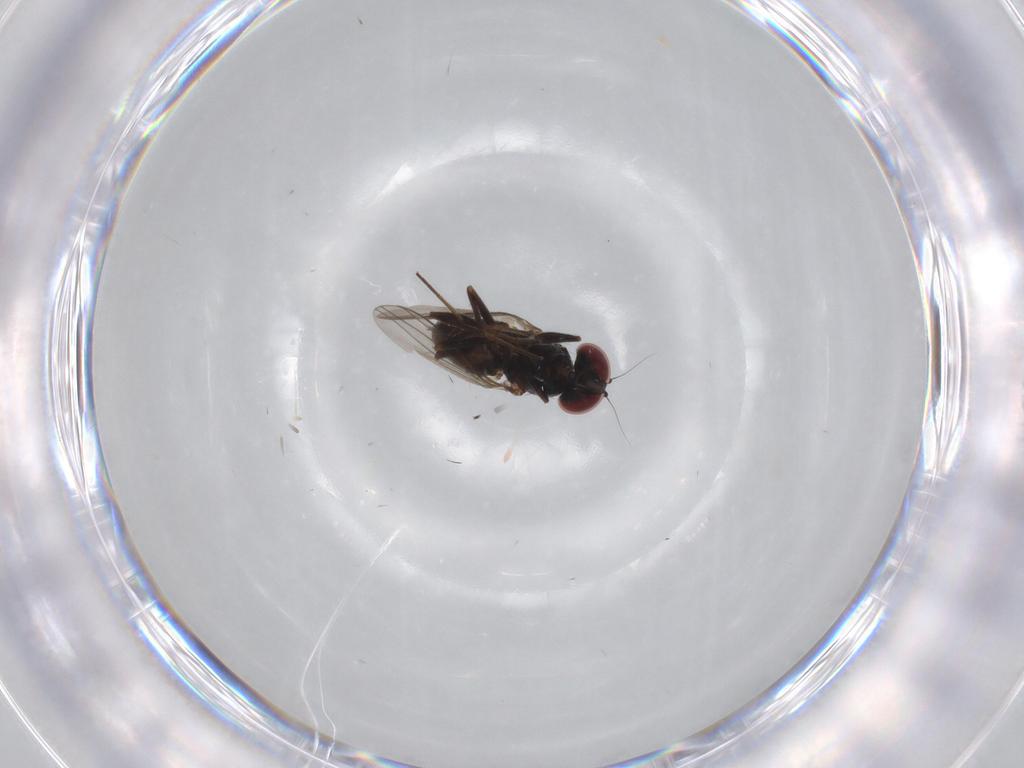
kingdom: Animalia
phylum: Arthropoda
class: Insecta
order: Diptera
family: Dolichopodidae
